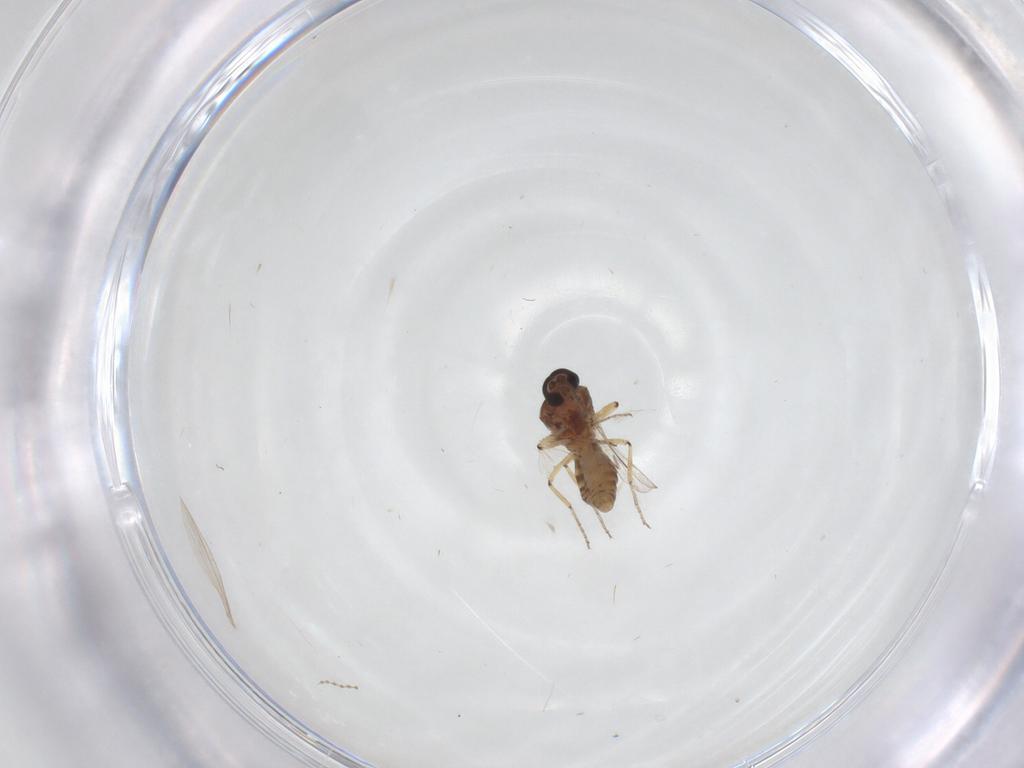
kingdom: Animalia
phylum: Arthropoda
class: Insecta
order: Diptera
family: Ceratopogonidae
